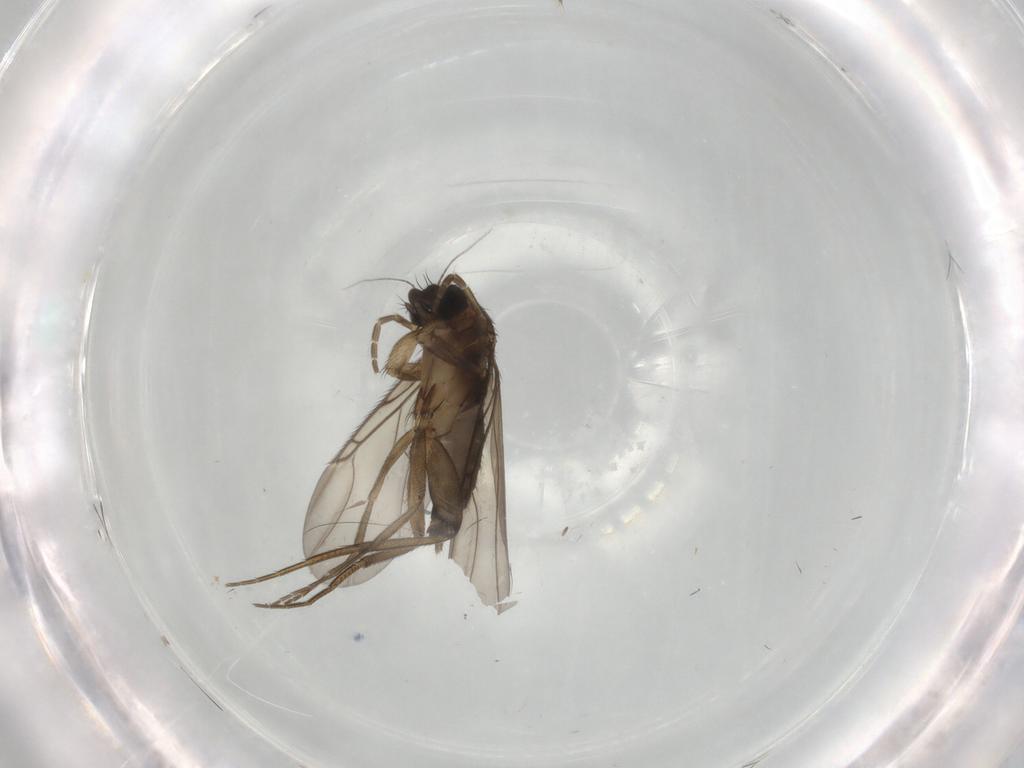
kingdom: Animalia
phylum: Arthropoda
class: Insecta
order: Diptera
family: Phoridae
